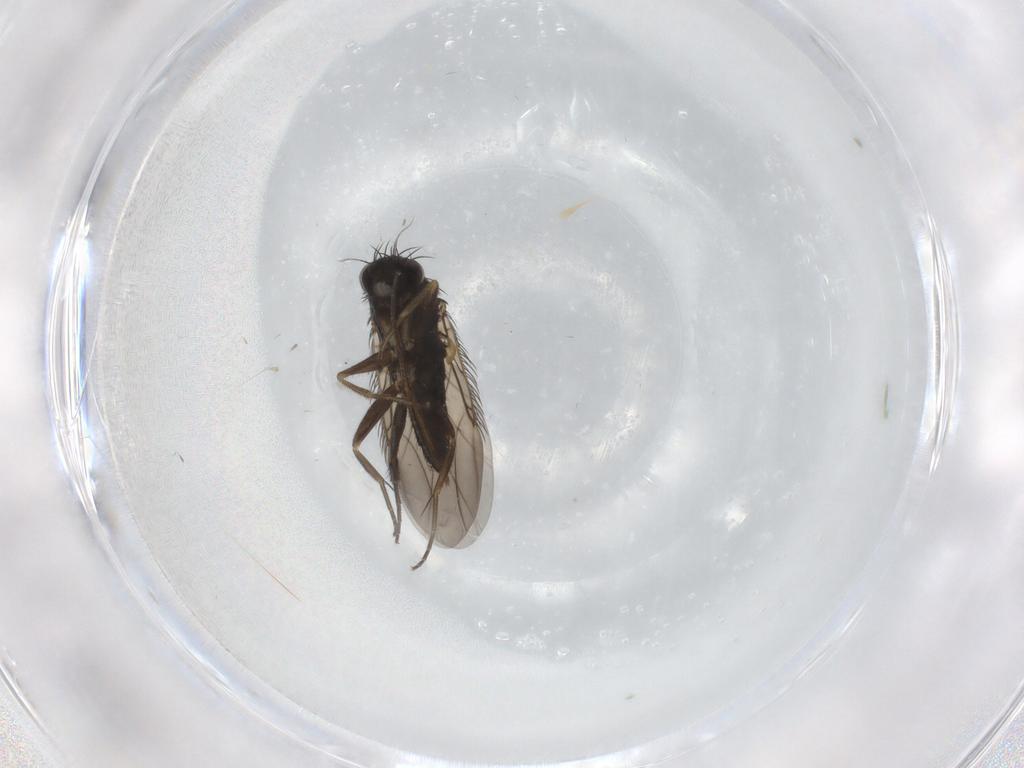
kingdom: Animalia
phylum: Arthropoda
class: Insecta
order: Diptera
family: Phoridae
